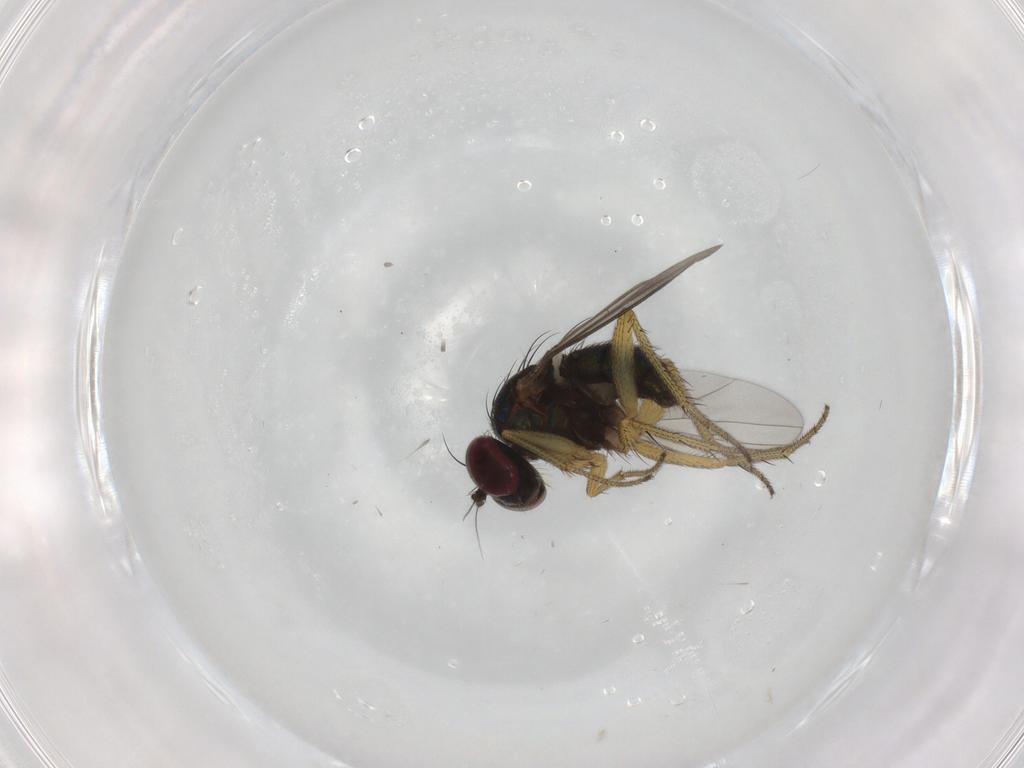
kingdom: Animalia
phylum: Arthropoda
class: Insecta
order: Diptera
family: Dolichopodidae
